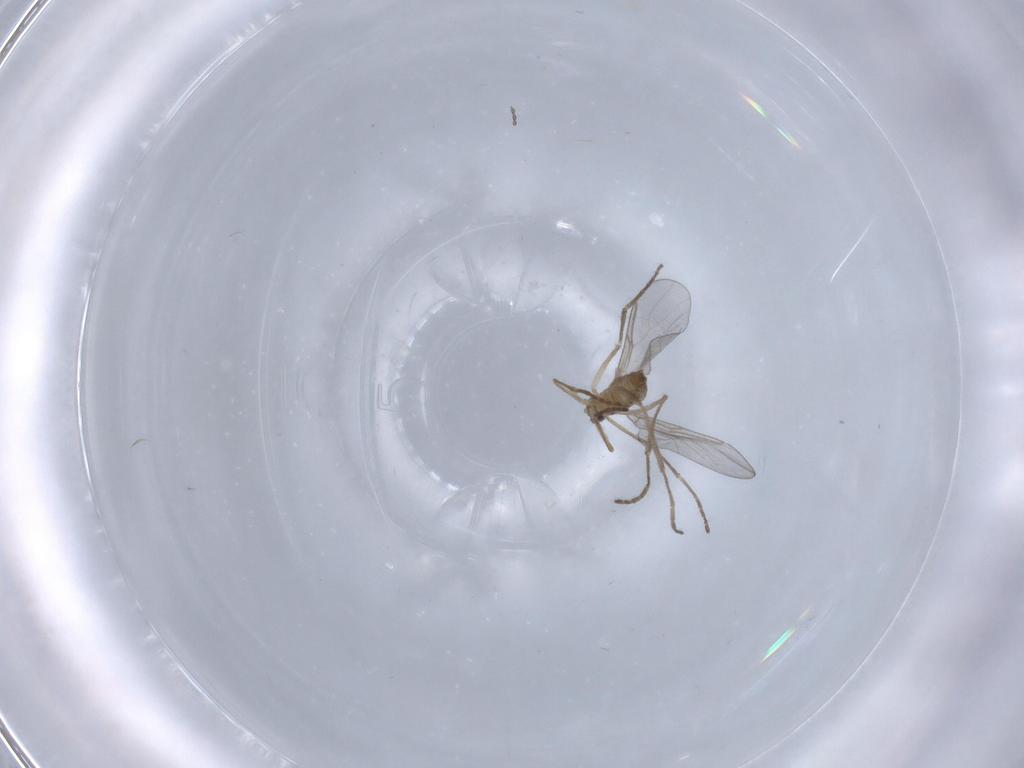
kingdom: Animalia
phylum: Arthropoda
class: Insecta
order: Diptera
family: Cecidomyiidae
